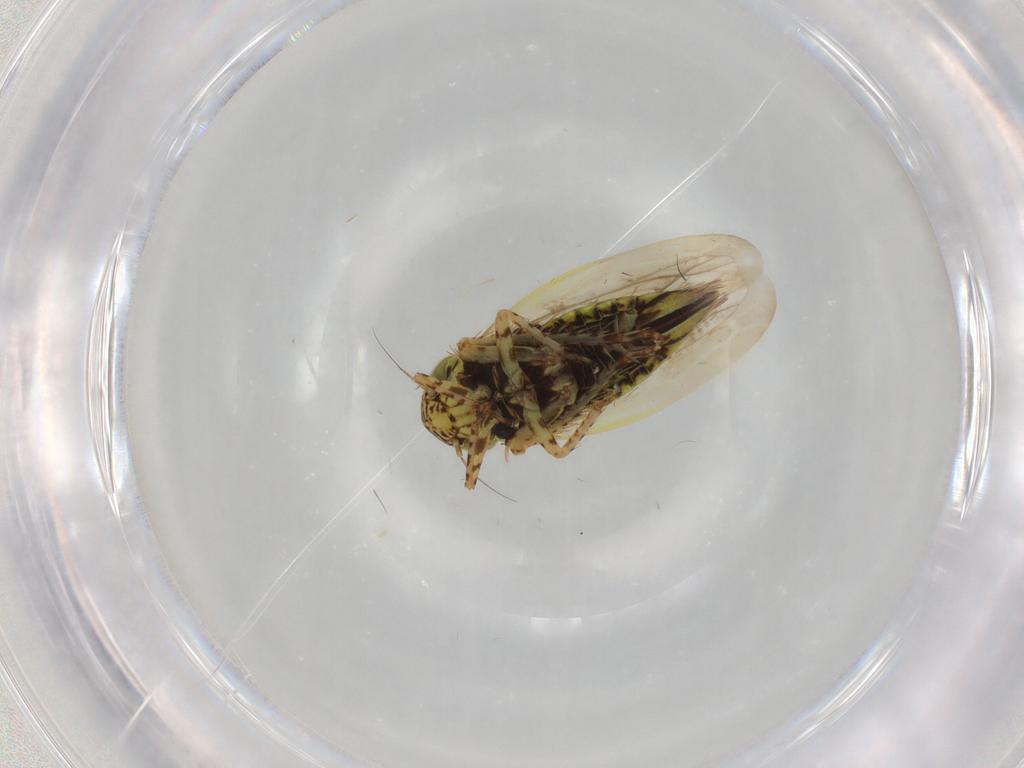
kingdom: Animalia
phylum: Arthropoda
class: Insecta
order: Hemiptera
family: Cicadellidae
